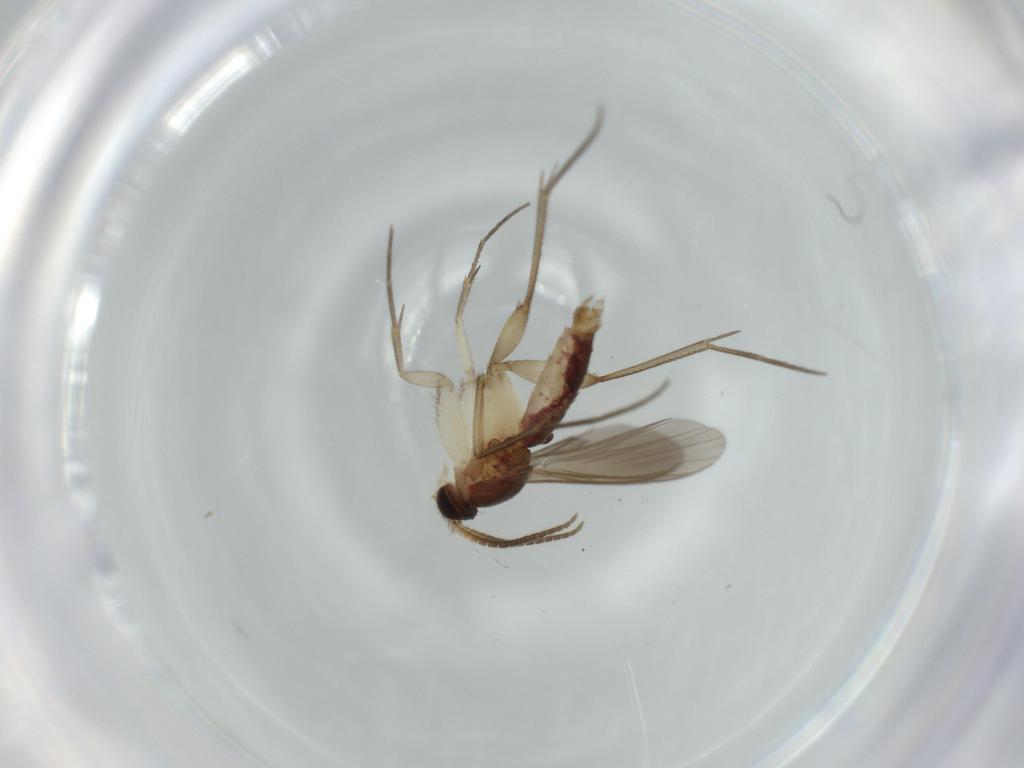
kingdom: Animalia
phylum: Arthropoda
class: Insecta
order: Diptera
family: Mycetophilidae
